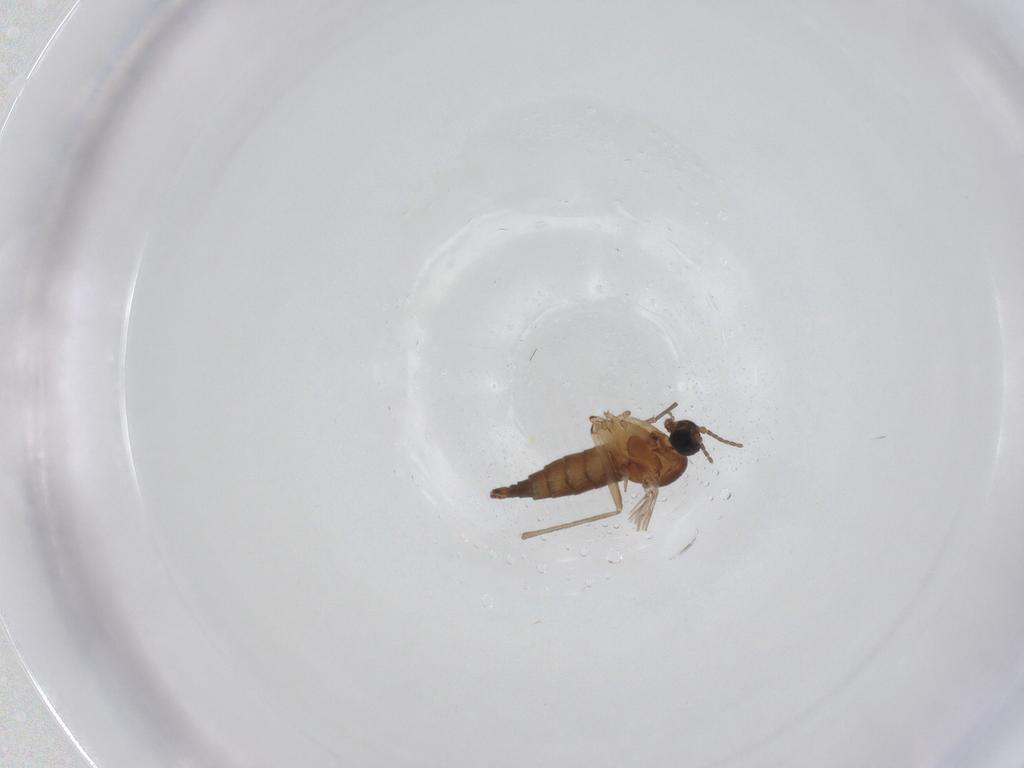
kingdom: Animalia
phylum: Arthropoda
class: Insecta
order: Diptera
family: Sciaridae
